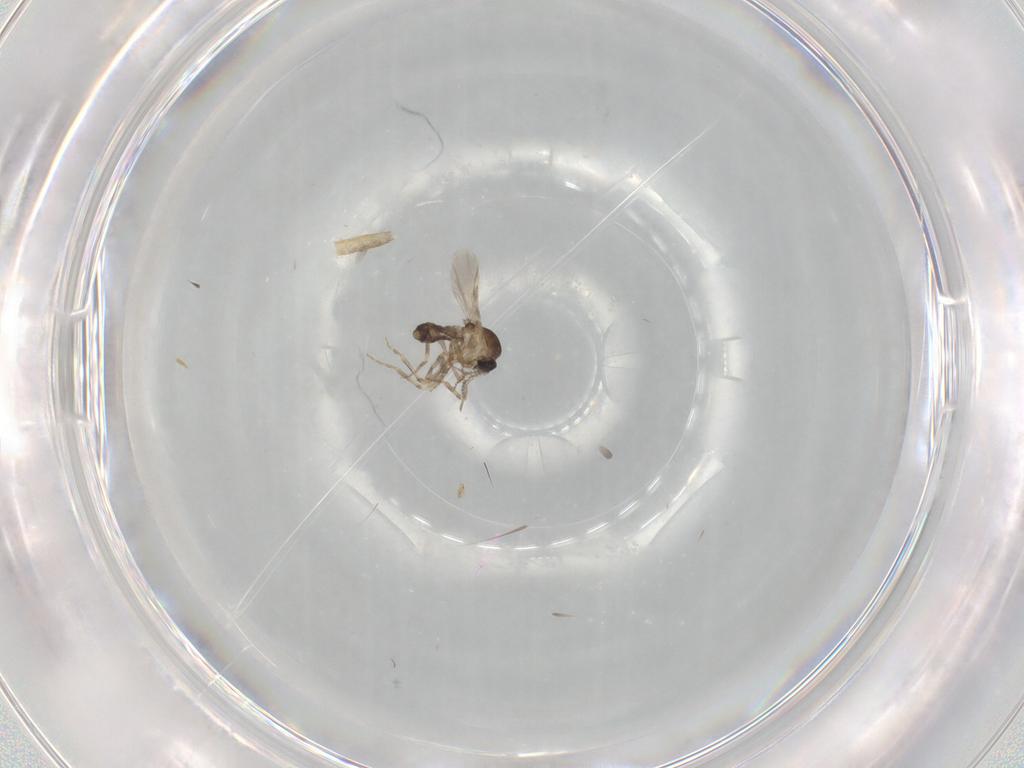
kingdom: Animalia
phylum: Arthropoda
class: Insecta
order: Diptera
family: Ceratopogonidae
